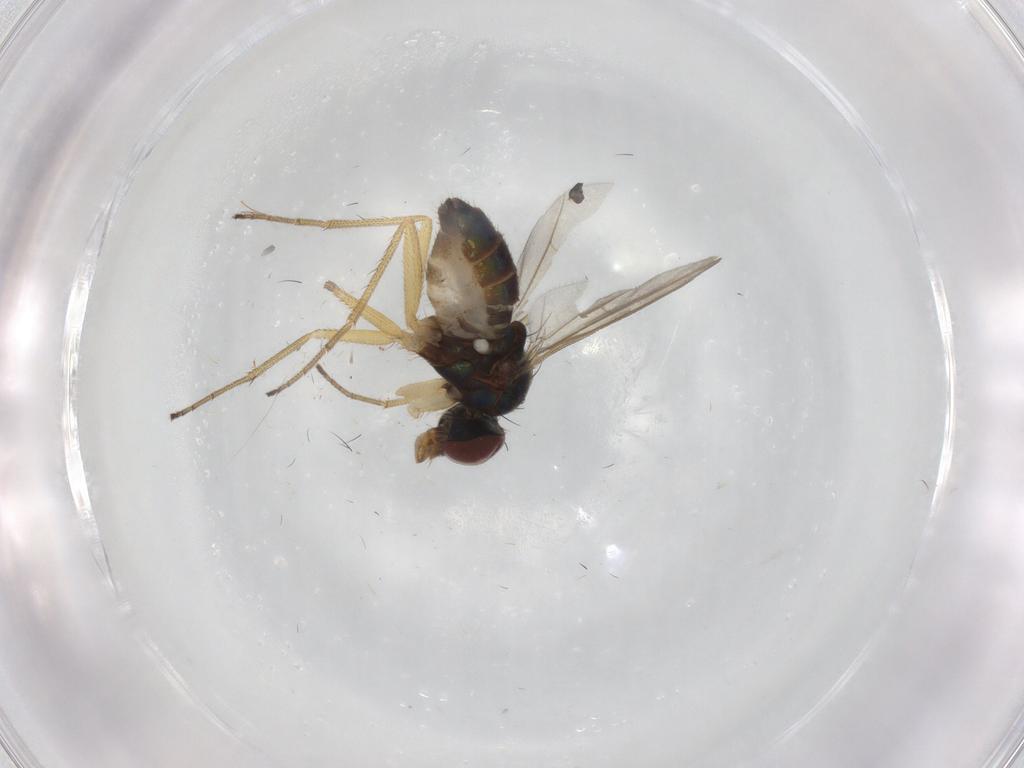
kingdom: Animalia
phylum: Arthropoda
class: Insecta
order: Diptera
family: Dolichopodidae
